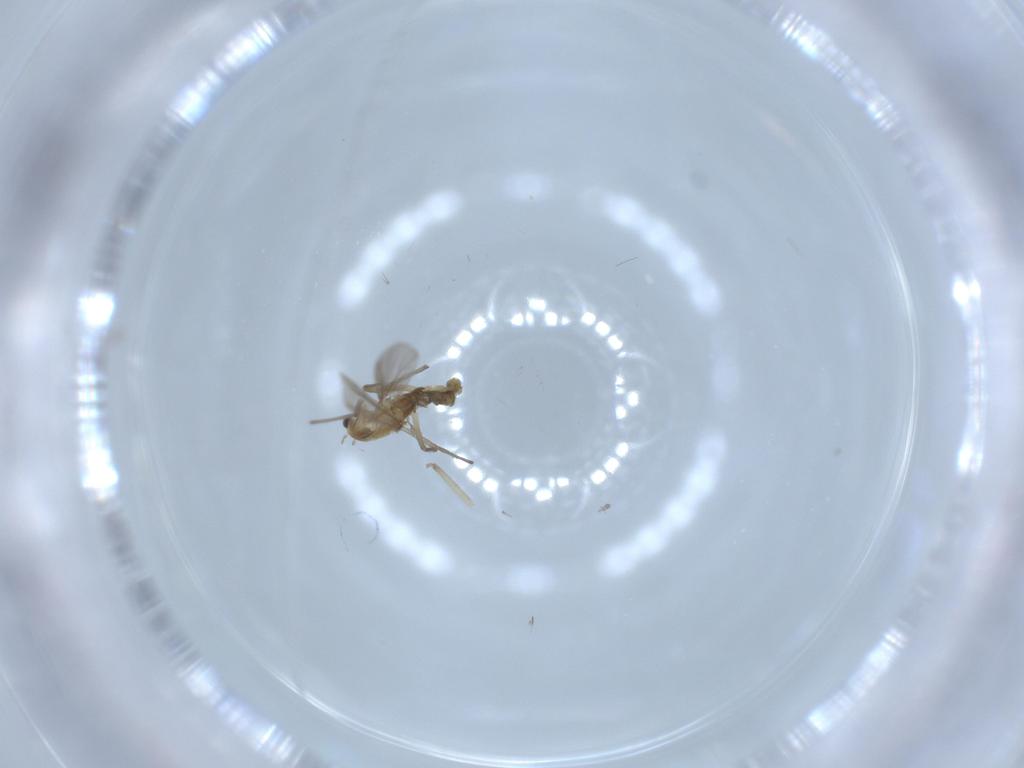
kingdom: Animalia
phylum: Arthropoda
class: Insecta
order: Diptera
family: Chironomidae
